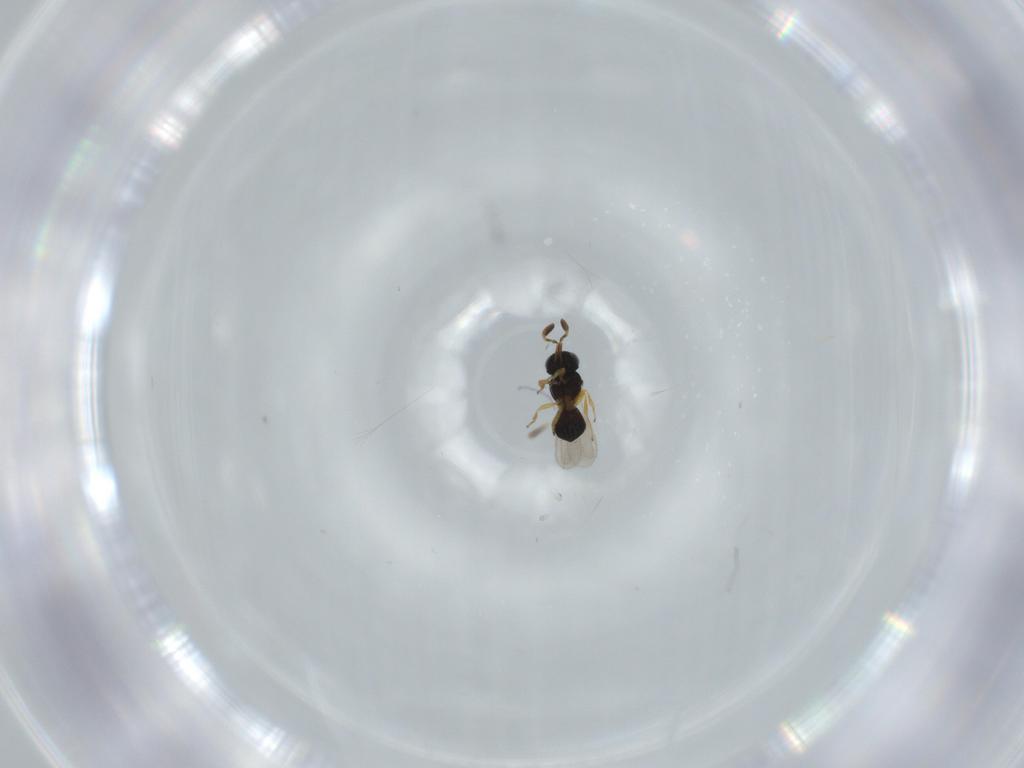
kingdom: Animalia
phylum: Arthropoda
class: Insecta
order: Hymenoptera
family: Scelionidae
